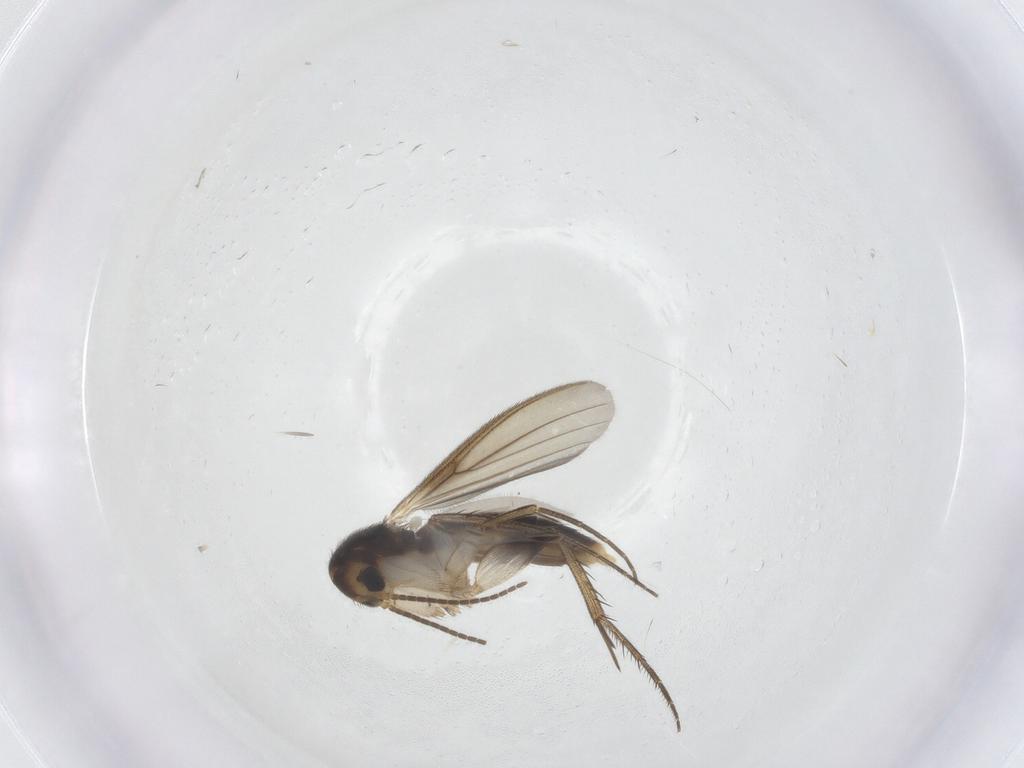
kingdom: Animalia
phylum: Arthropoda
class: Insecta
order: Diptera
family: Mycetophilidae
